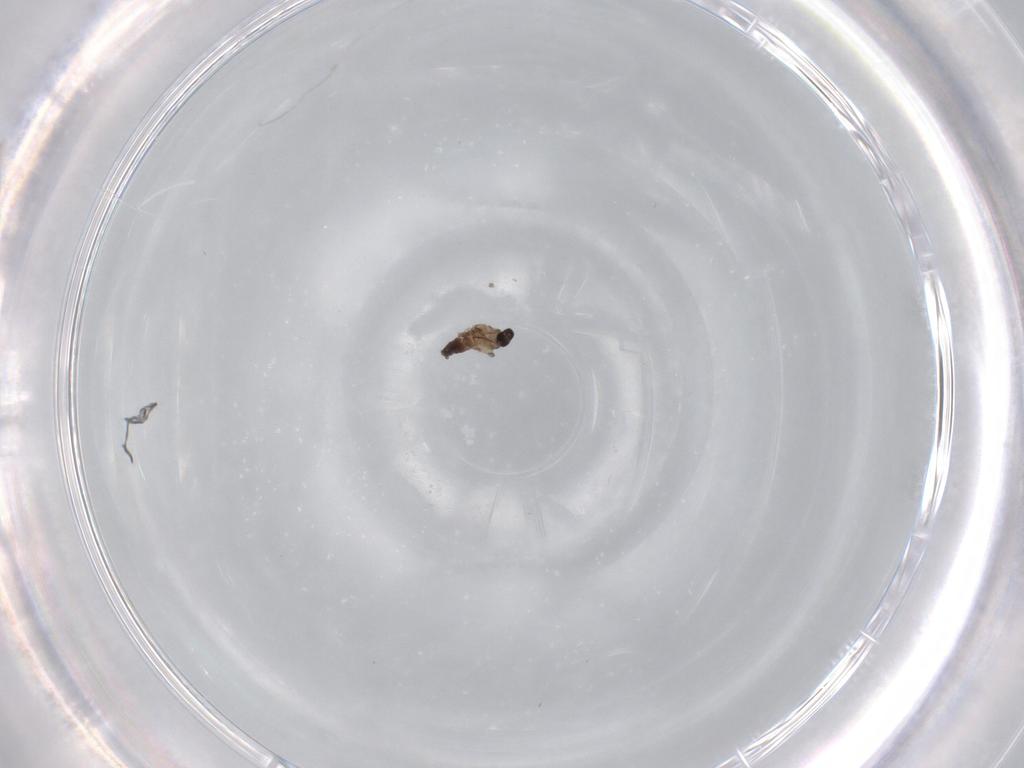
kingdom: Animalia
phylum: Arthropoda
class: Insecta
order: Diptera
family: Cecidomyiidae
